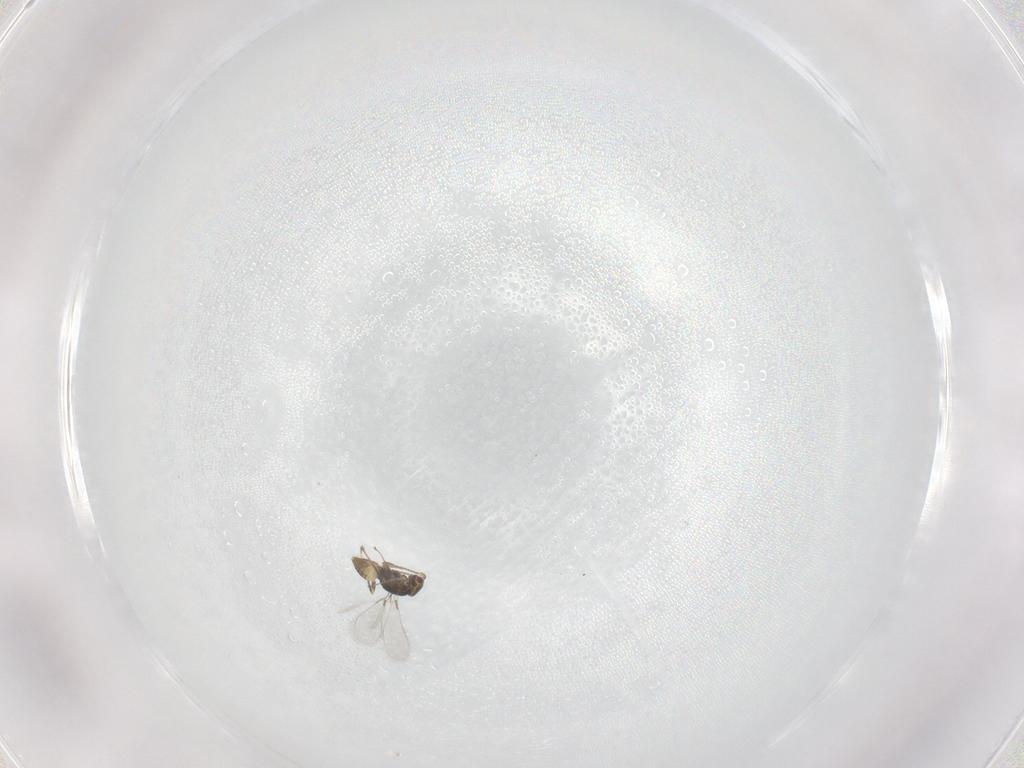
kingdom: Animalia
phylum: Arthropoda
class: Insecta
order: Hymenoptera
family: Mymaridae
